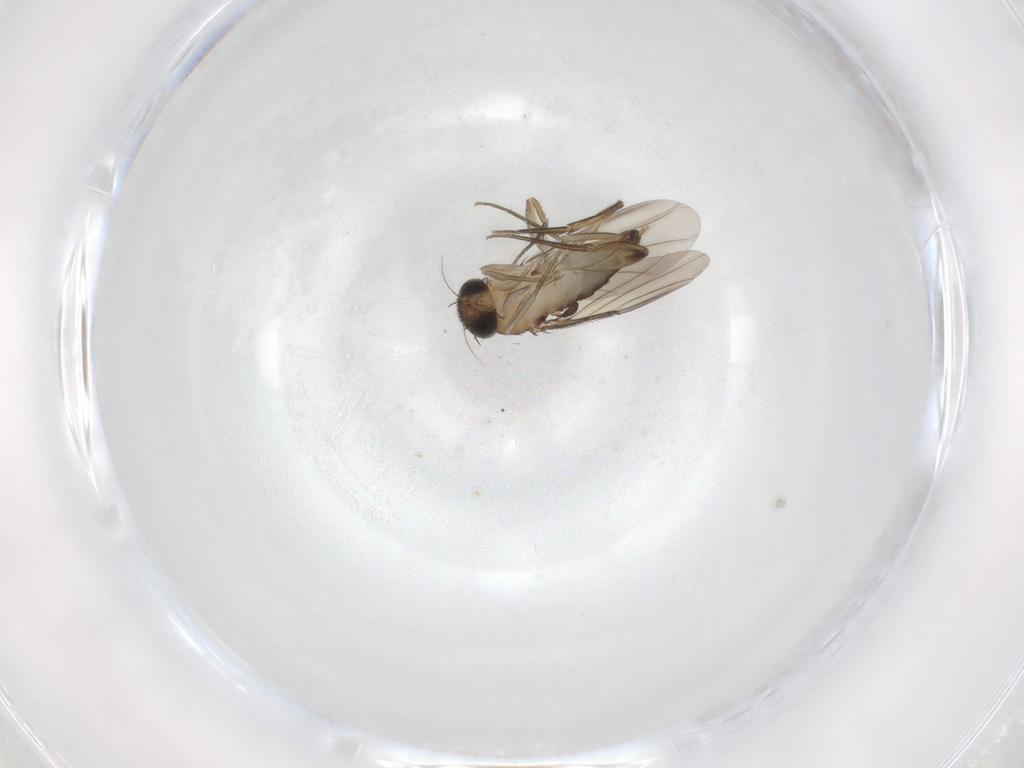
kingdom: Animalia
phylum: Arthropoda
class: Insecta
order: Diptera
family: Phoridae
